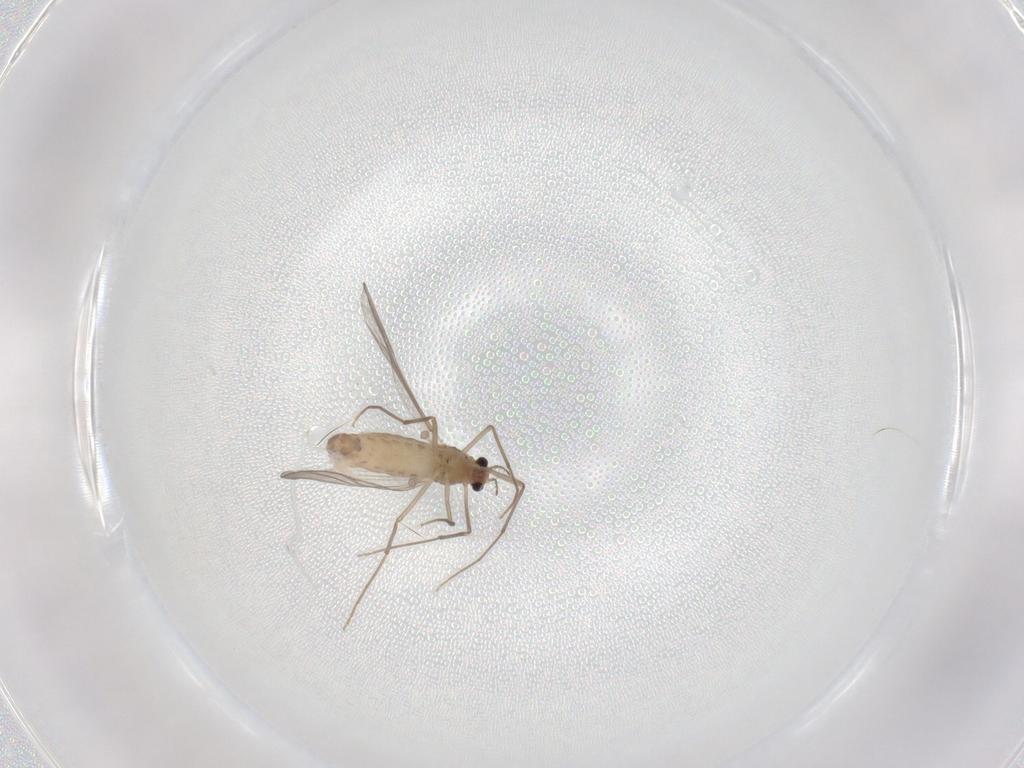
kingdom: Animalia
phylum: Arthropoda
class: Insecta
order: Diptera
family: Chironomidae
